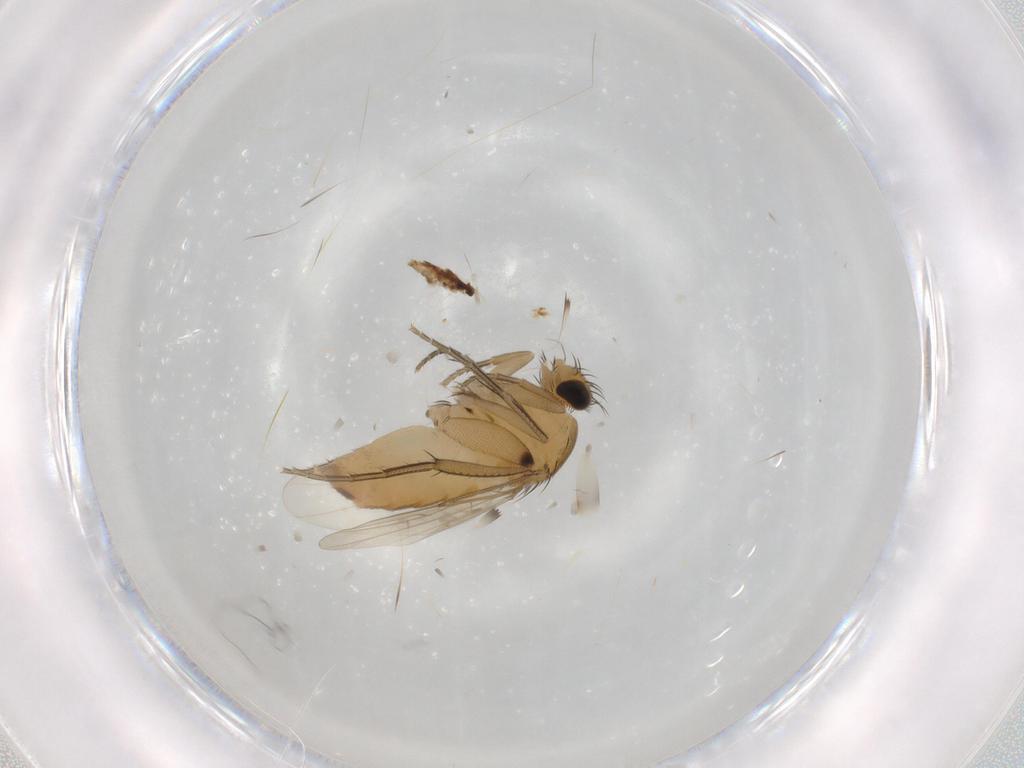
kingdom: Animalia
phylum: Arthropoda
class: Insecta
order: Diptera
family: Phoridae
